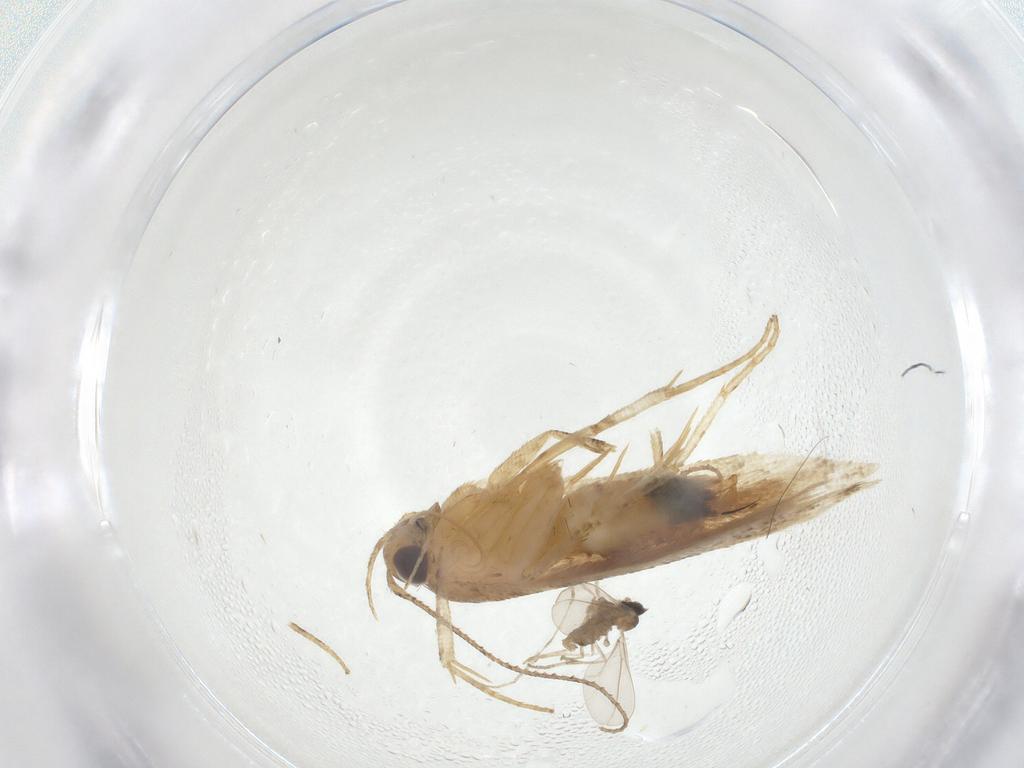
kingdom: Animalia
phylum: Arthropoda
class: Insecta
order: Diptera
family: Cecidomyiidae
